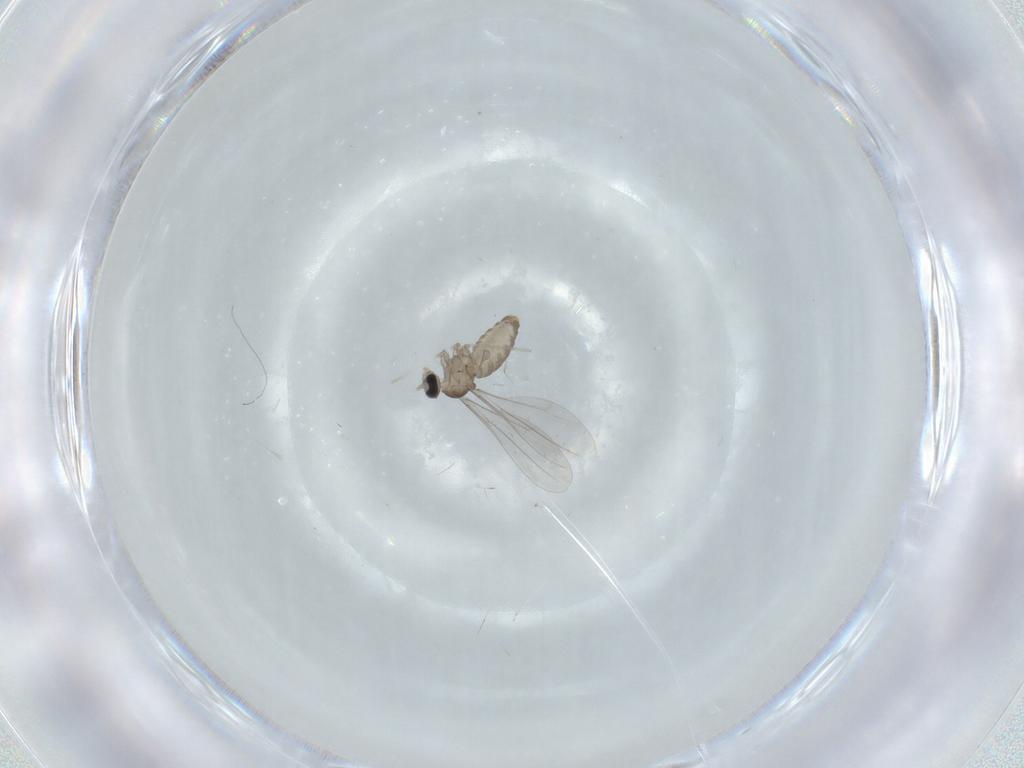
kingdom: Animalia
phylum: Arthropoda
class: Insecta
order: Diptera
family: Cecidomyiidae
